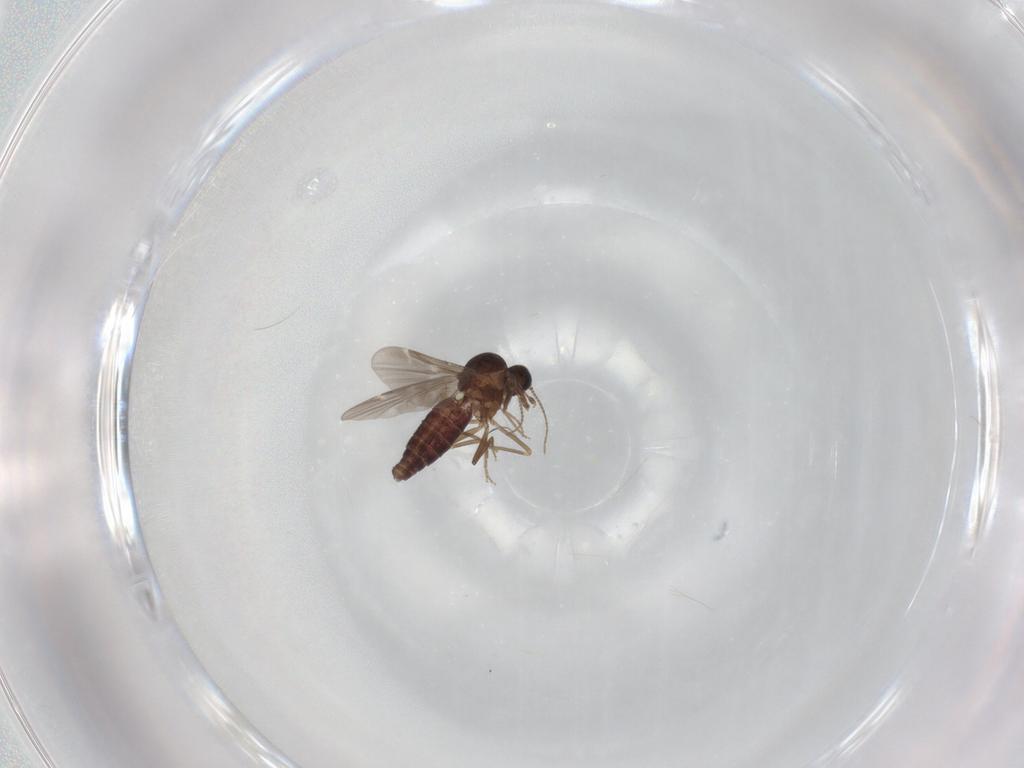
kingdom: Animalia
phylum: Arthropoda
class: Insecta
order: Diptera
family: Ceratopogonidae
